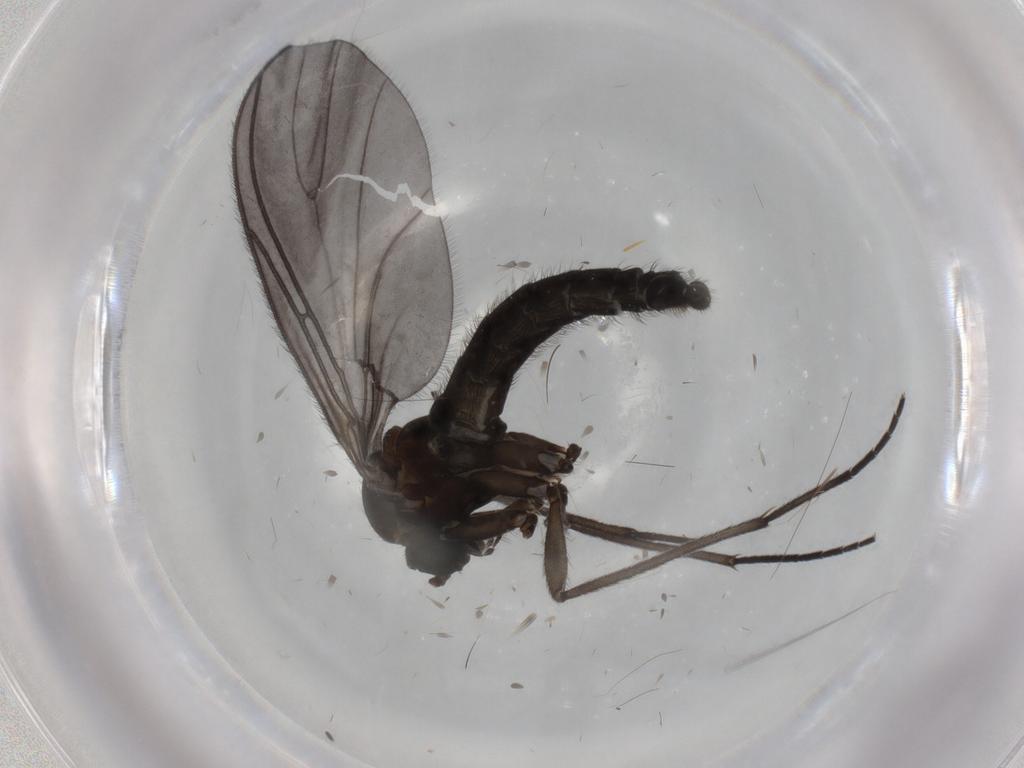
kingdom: Animalia
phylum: Arthropoda
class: Insecta
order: Diptera
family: Sciaridae
